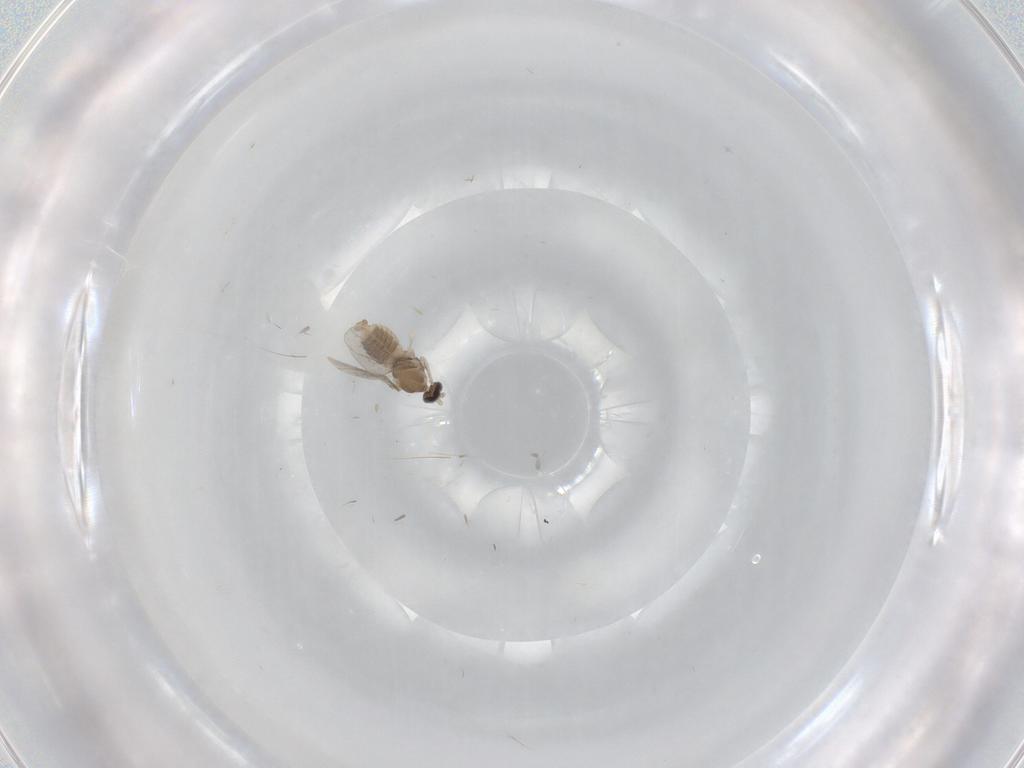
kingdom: Animalia
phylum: Arthropoda
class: Insecta
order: Diptera
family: Cecidomyiidae
